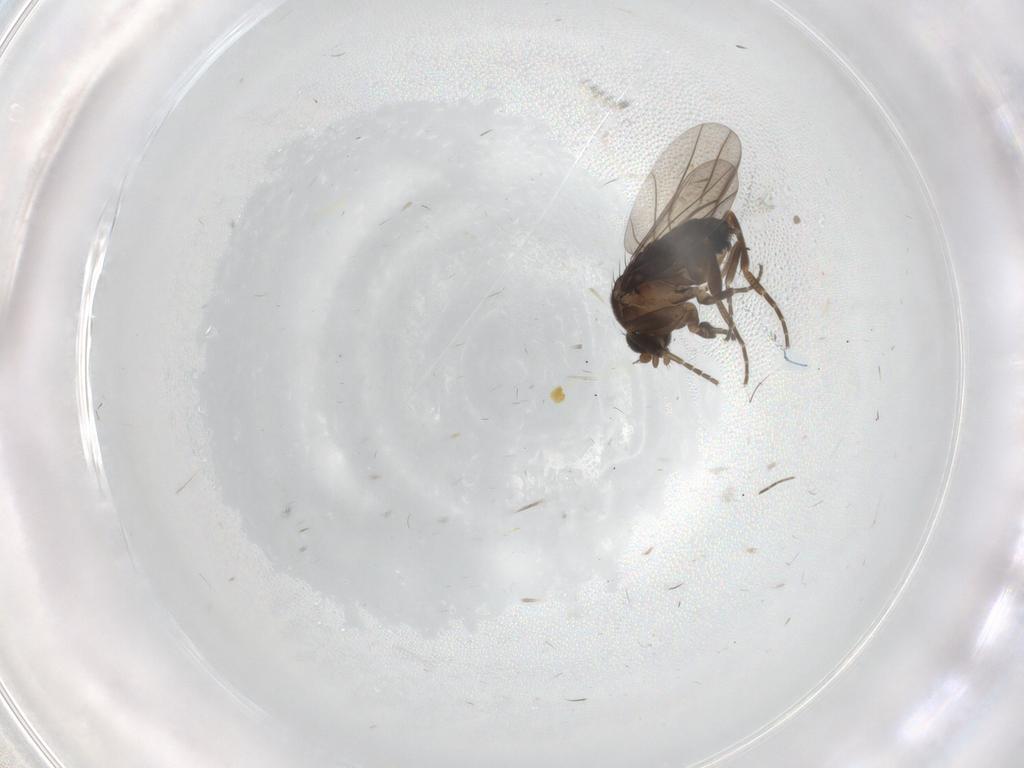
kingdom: Animalia
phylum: Arthropoda
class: Insecta
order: Diptera
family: Phoridae
